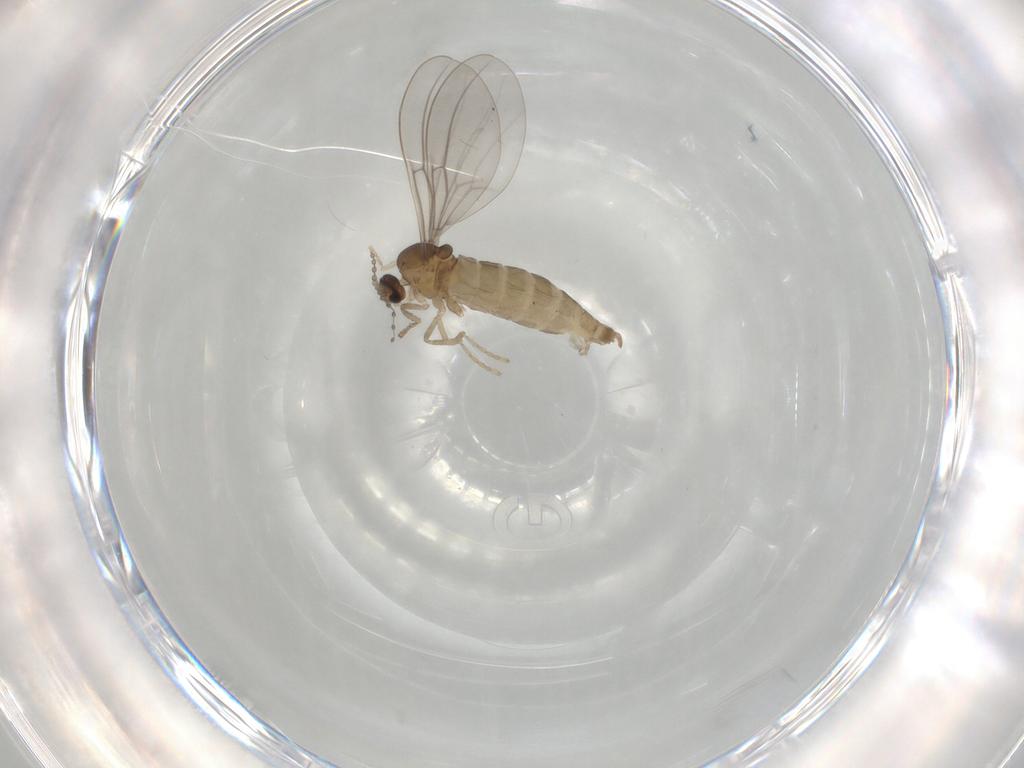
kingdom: Animalia
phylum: Arthropoda
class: Insecta
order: Diptera
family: Cecidomyiidae
